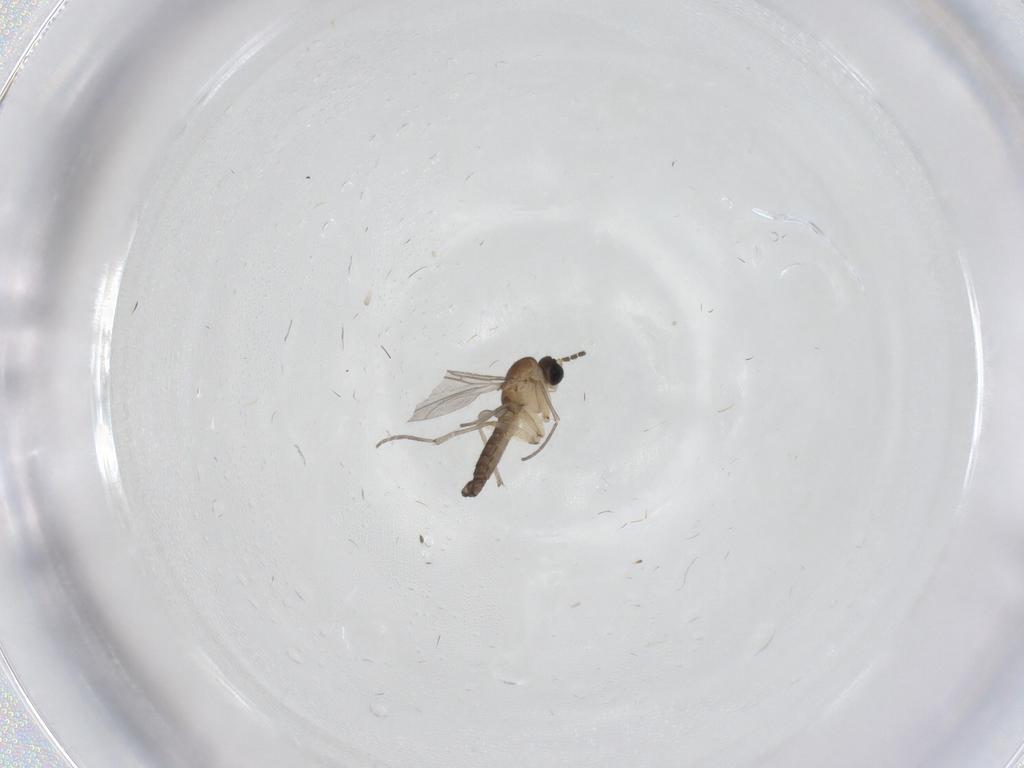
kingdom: Animalia
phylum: Arthropoda
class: Insecta
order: Diptera
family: Sciaridae
